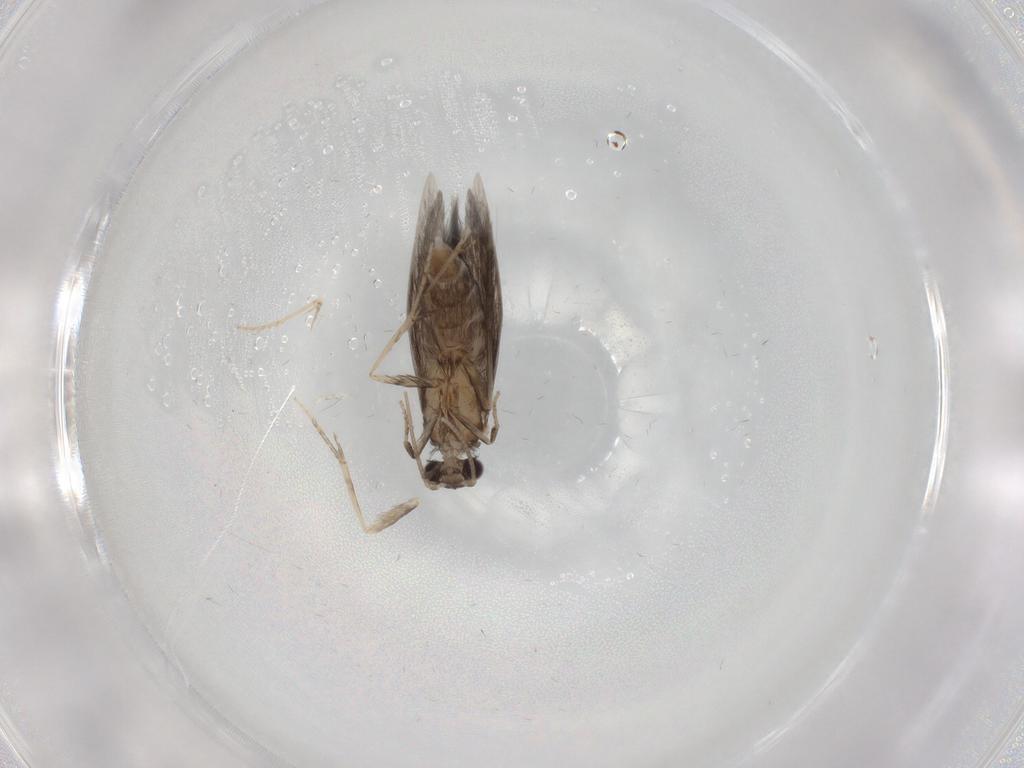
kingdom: Animalia
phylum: Arthropoda
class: Insecta
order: Trichoptera
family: Hydroptilidae
